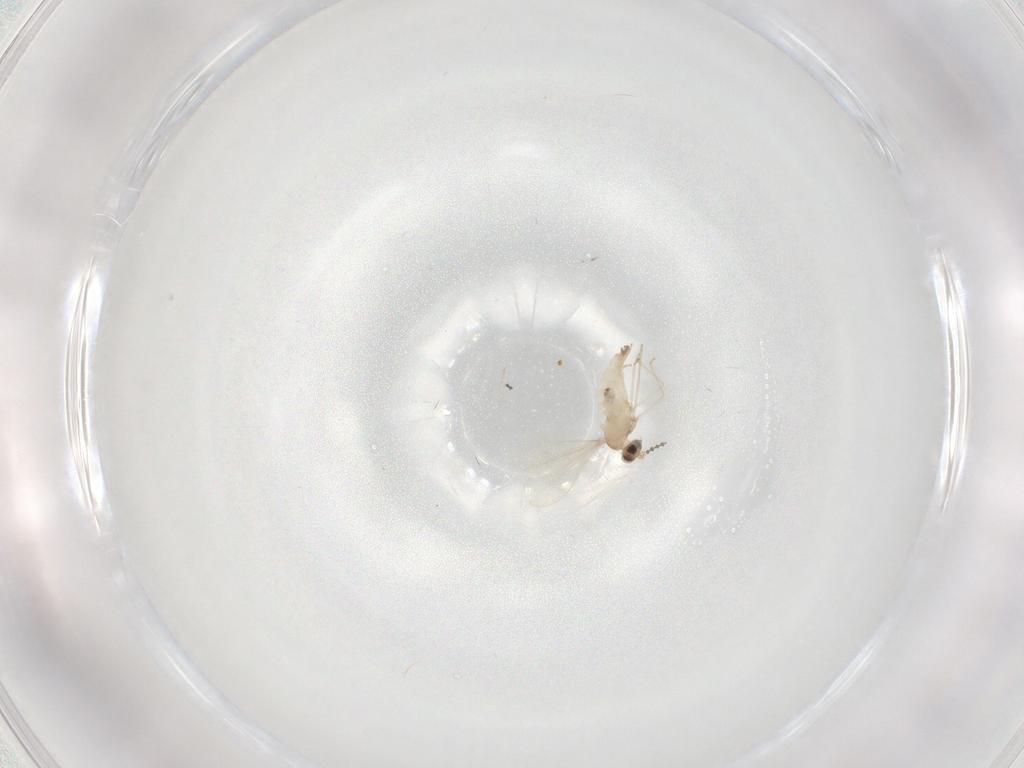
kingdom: Animalia
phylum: Arthropoda
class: Insecta
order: Diptera
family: Cecidomyiidae
